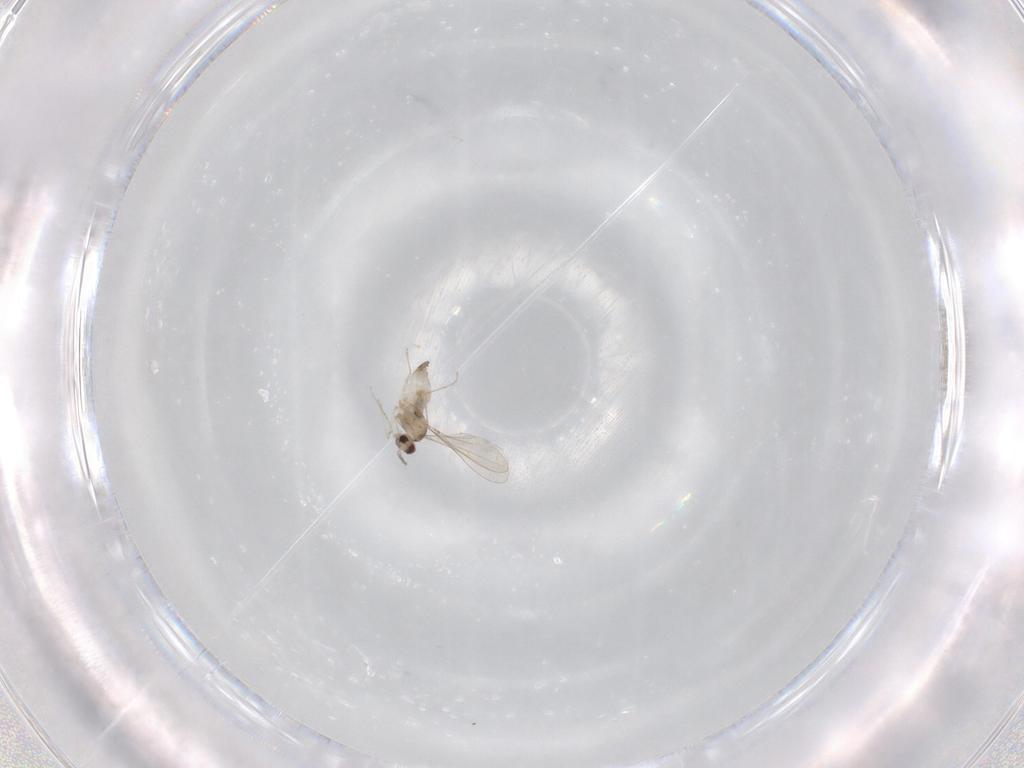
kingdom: Animalia
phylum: Arthropoda
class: Insecta
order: Diptera
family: Cecidomyiidae
